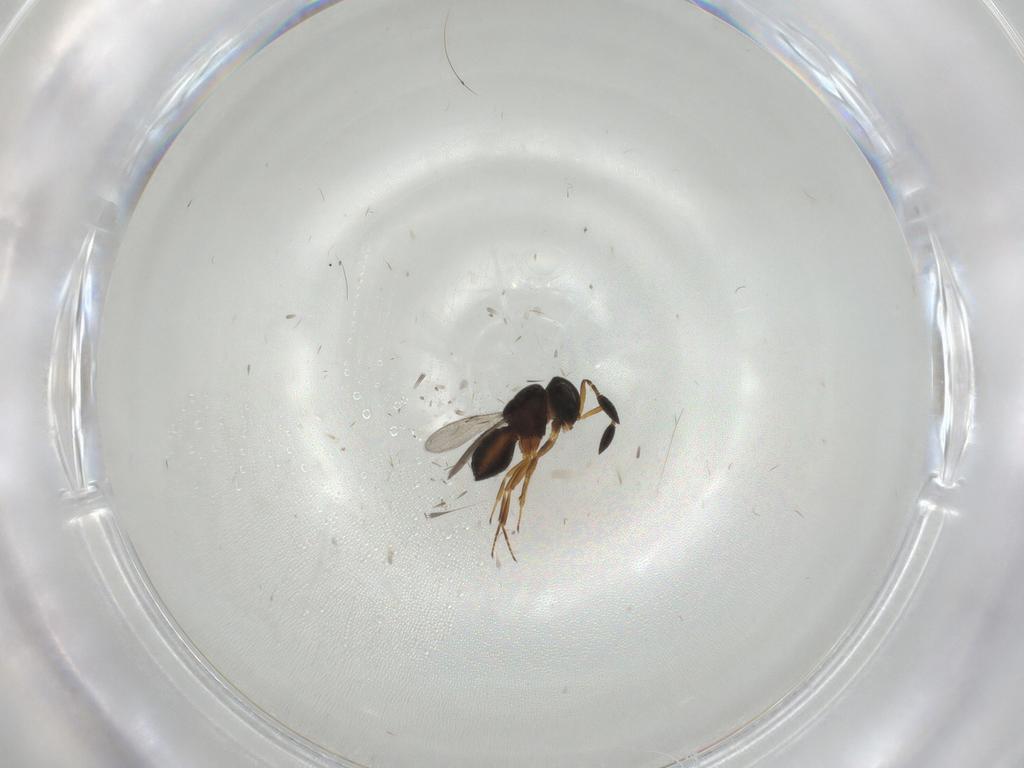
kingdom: Animalia
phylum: Arthropoda
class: Insecta
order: Hymenoptera
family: Scelionidae
